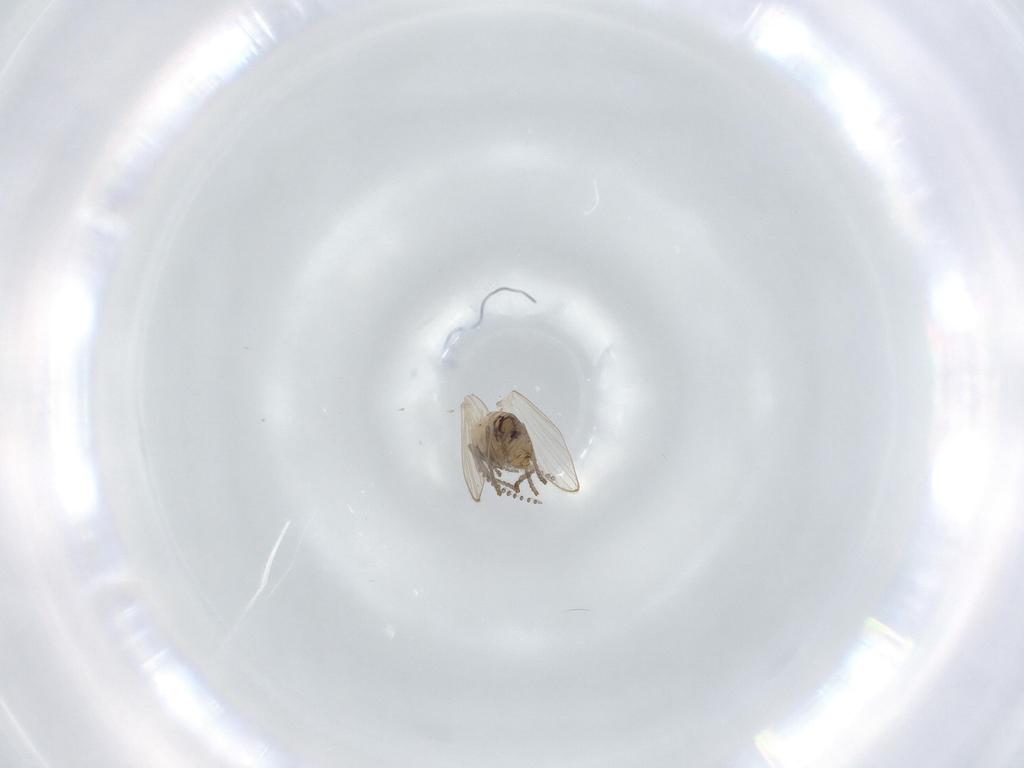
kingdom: Animalia
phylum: Arthropoda
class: Insecta
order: Diptera
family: Psychodidae
